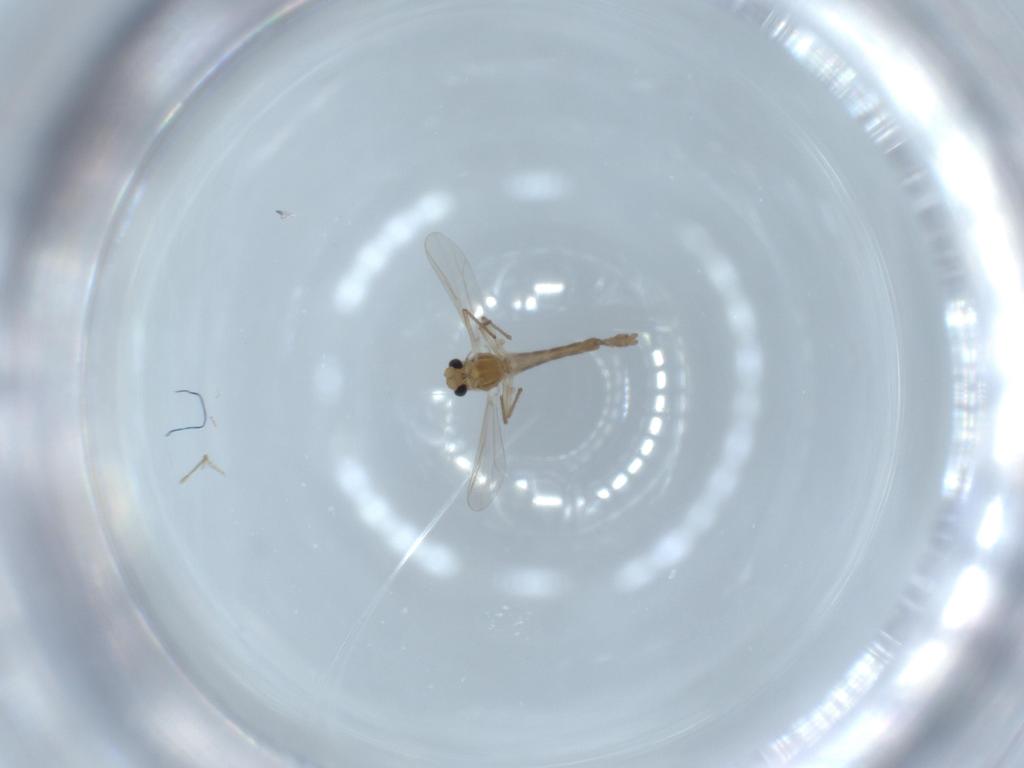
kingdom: Animalia
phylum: Arthropoda
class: Insecta
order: Diptera
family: Chironomidae
